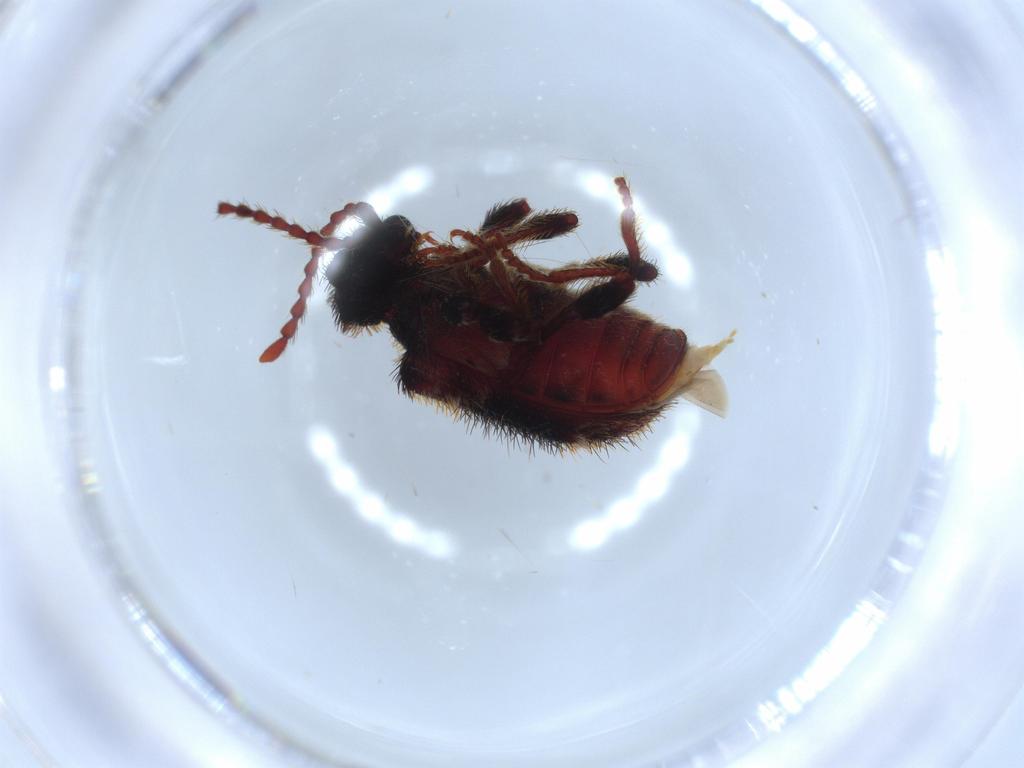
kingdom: Animalia
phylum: Arthropoda
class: Insecta
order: Coleoptera
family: Ptinidae
